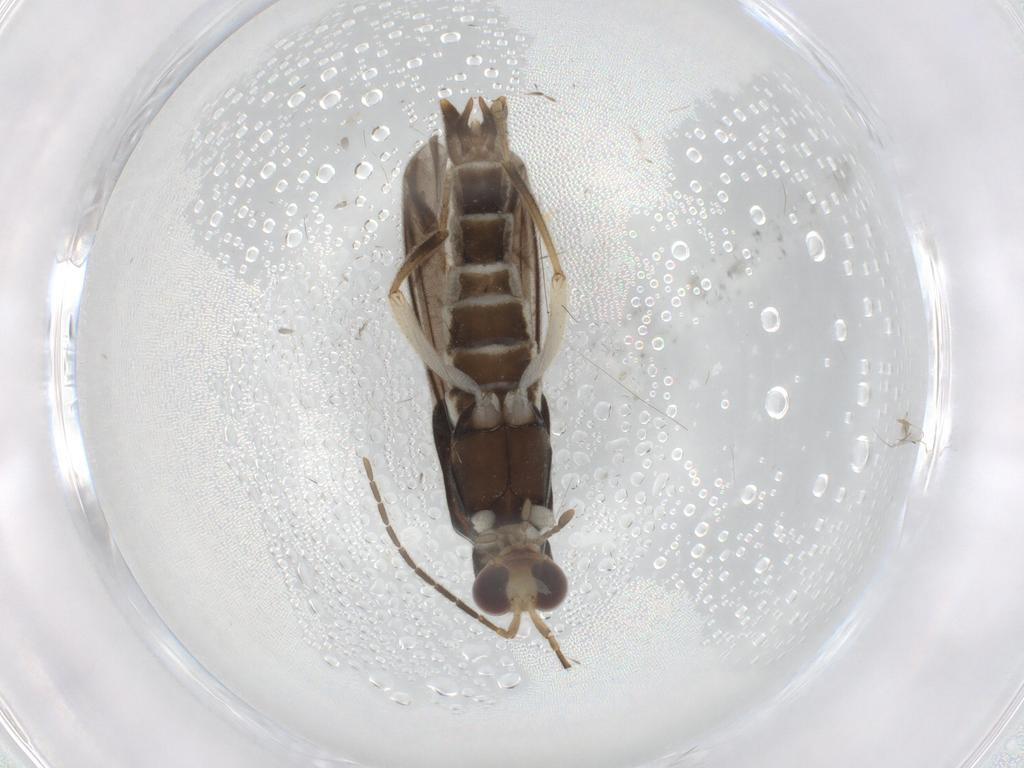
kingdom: Animalia
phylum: Arthropoda
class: Insecta
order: Coleoptera
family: Cantharidae
